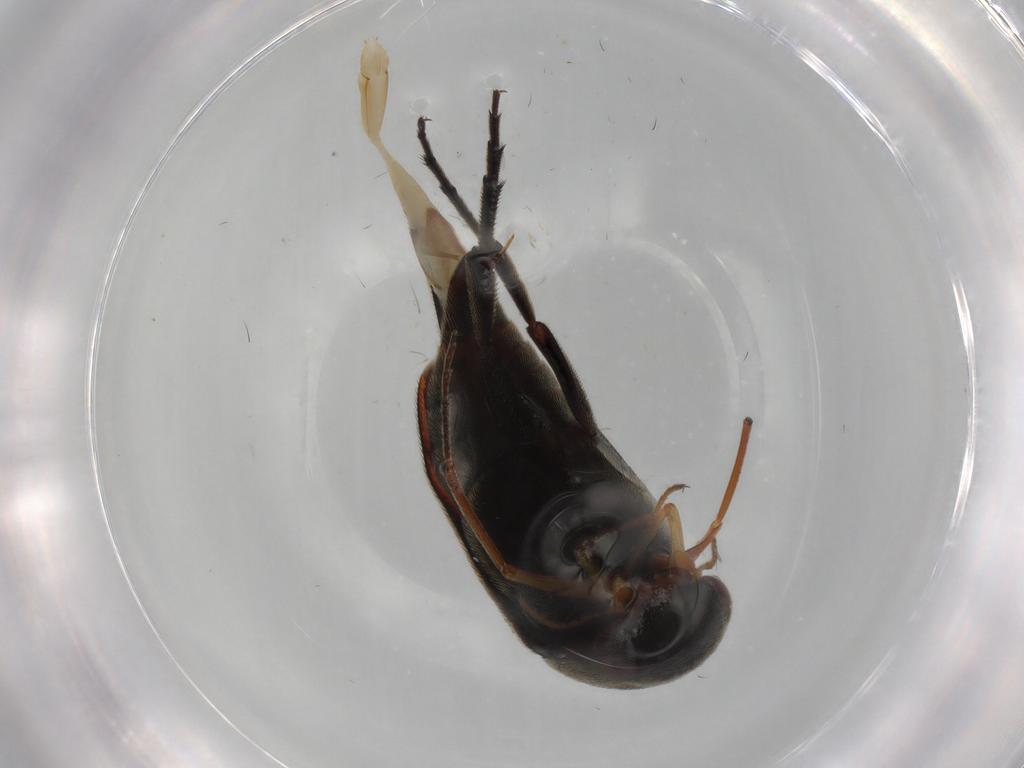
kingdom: Animalia
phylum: Arthropoda
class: Insecta
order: Coleoptera
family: Mordellidae
